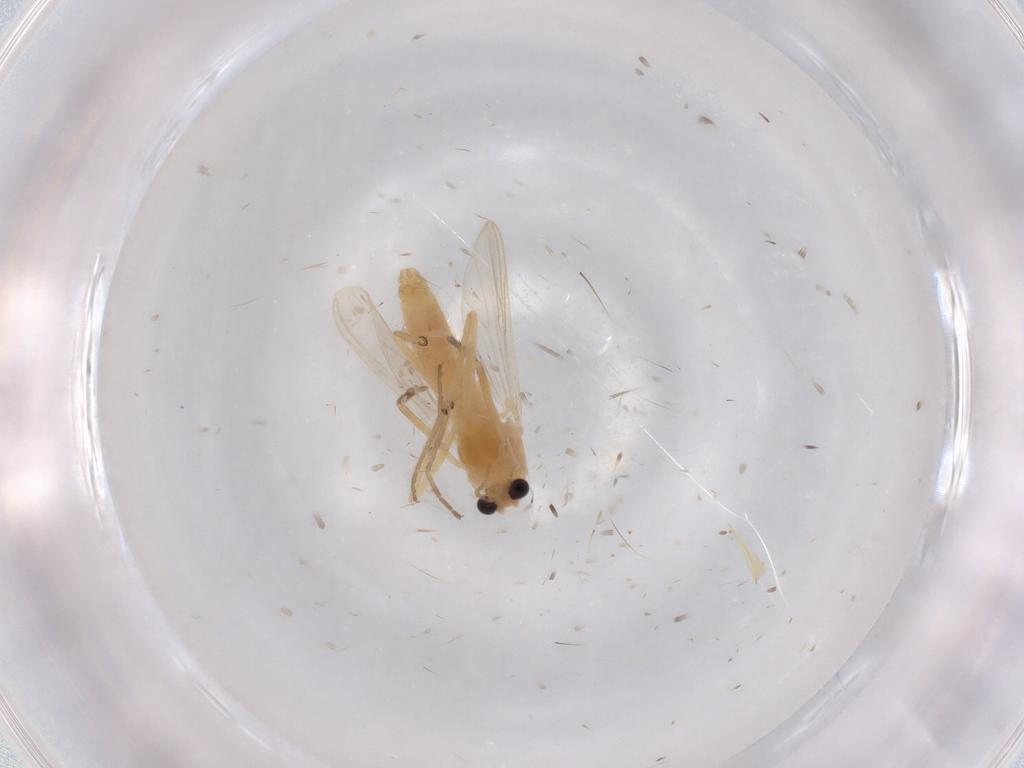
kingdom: Animalia
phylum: Arthropoda
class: Insecta
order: Diptera
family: Chironomidae
